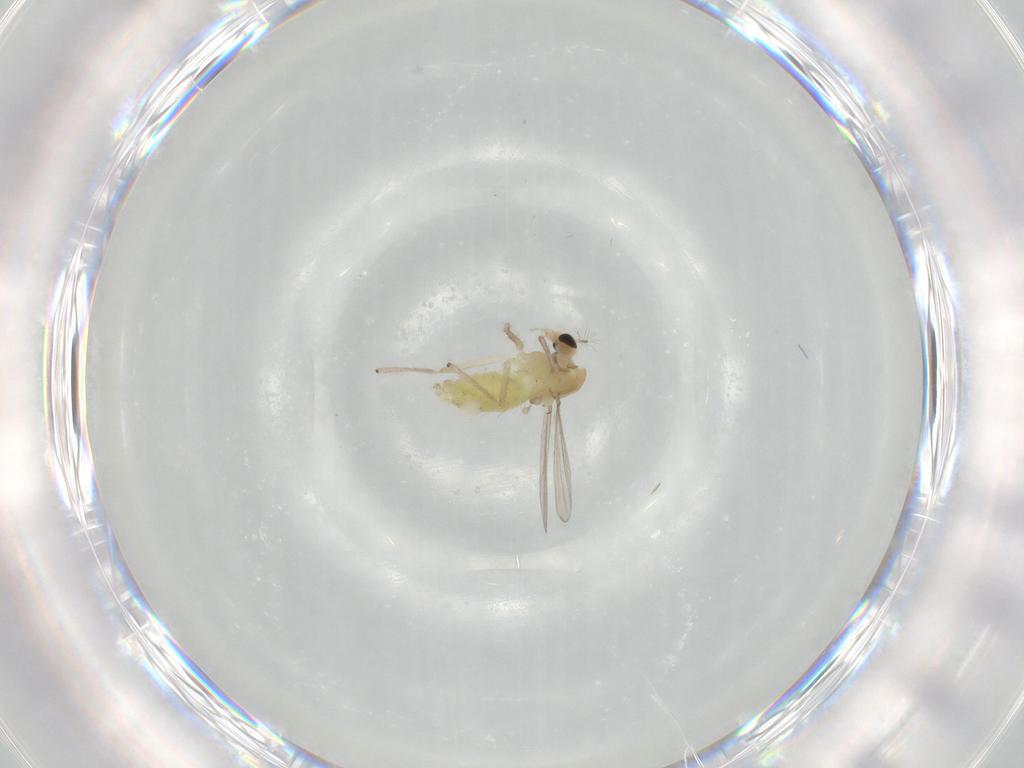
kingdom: Animalia
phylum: Arthropoda
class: Insecta
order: Diptera
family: Chironomidae
